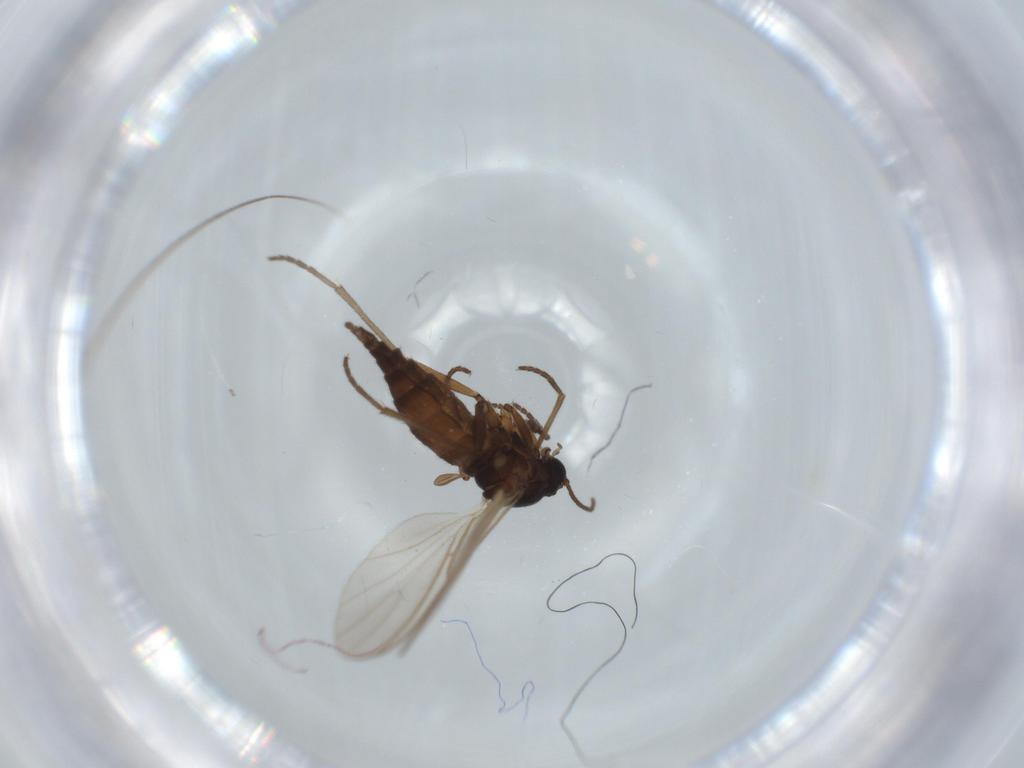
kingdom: Animalia
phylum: Arthropoda
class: Insecta
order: Diptera
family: Sciaridae
